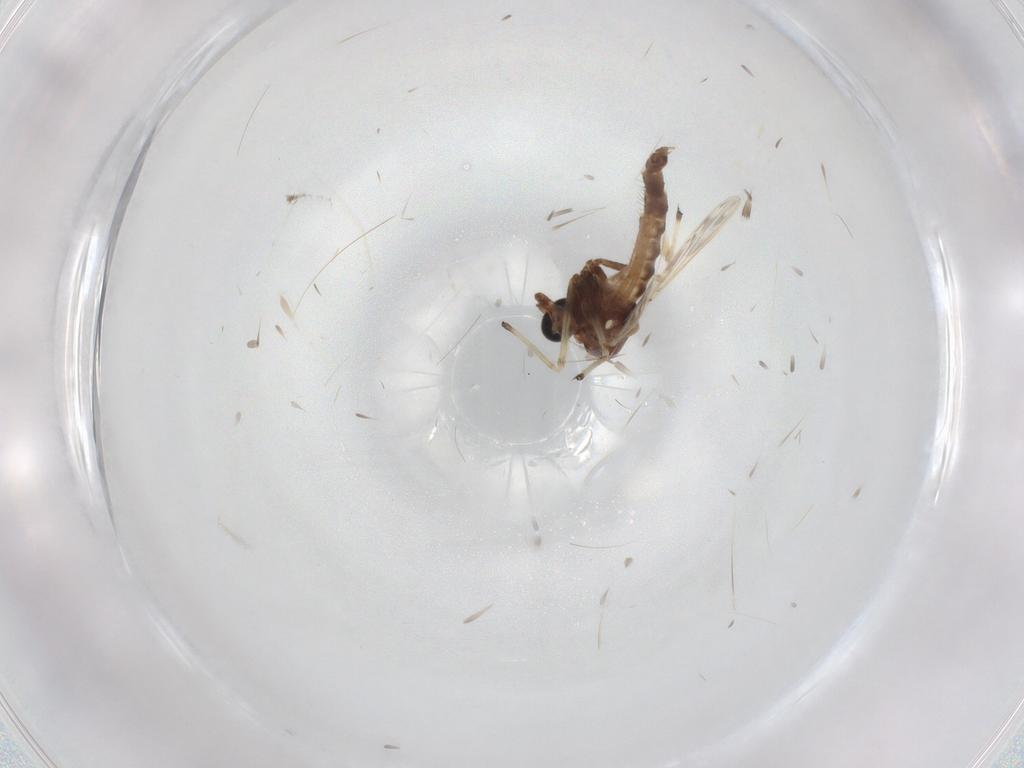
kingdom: Animalia
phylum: Arthropoda
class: Insecta
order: Diptera
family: Chironomidae
